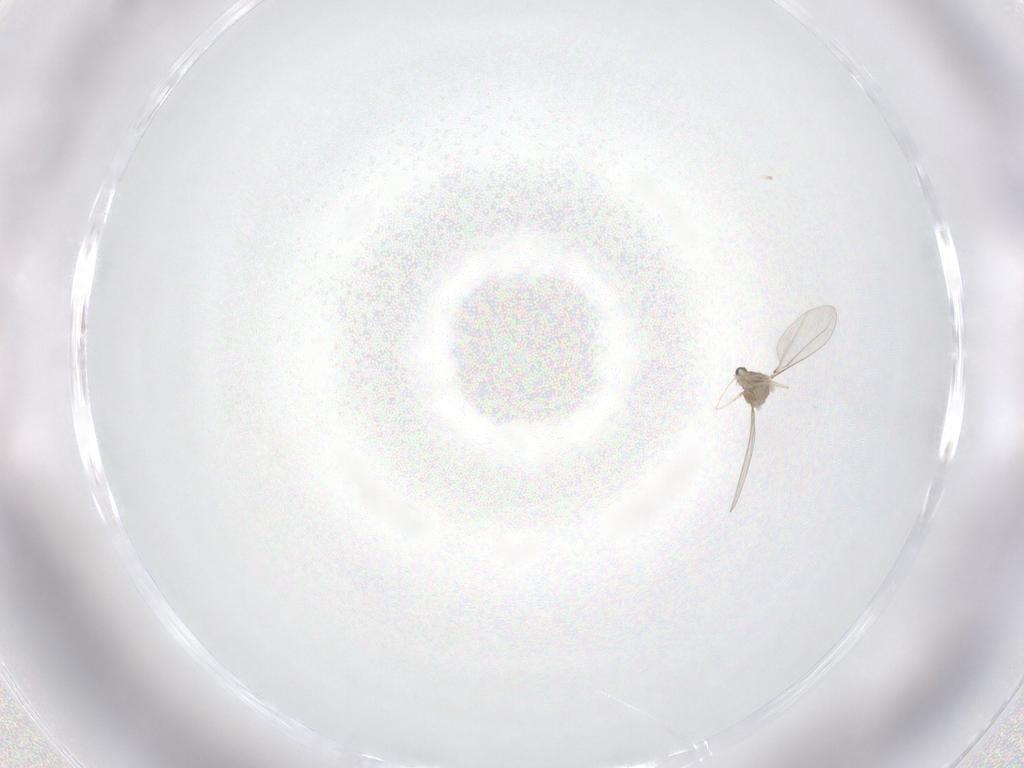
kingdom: Animalia
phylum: Arthropoda
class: Insecta
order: Diptera
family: Cecidomyiidae
